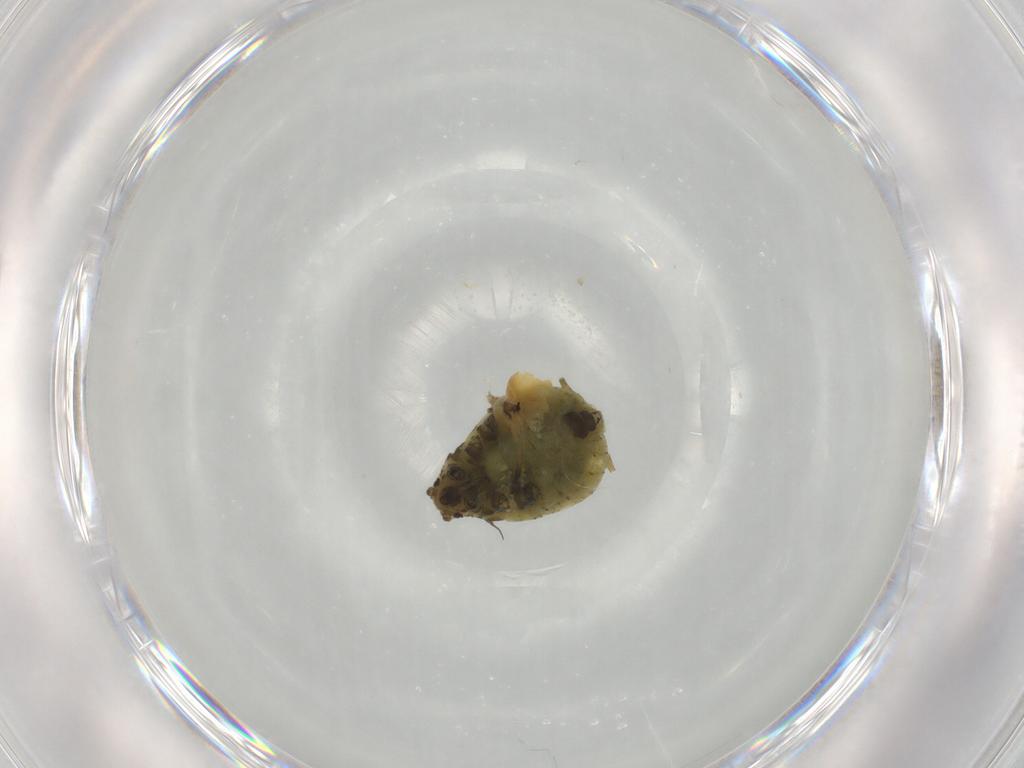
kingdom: Animalia
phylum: Arthropoda
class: Insecta
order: Hemiptera
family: Aphididae
